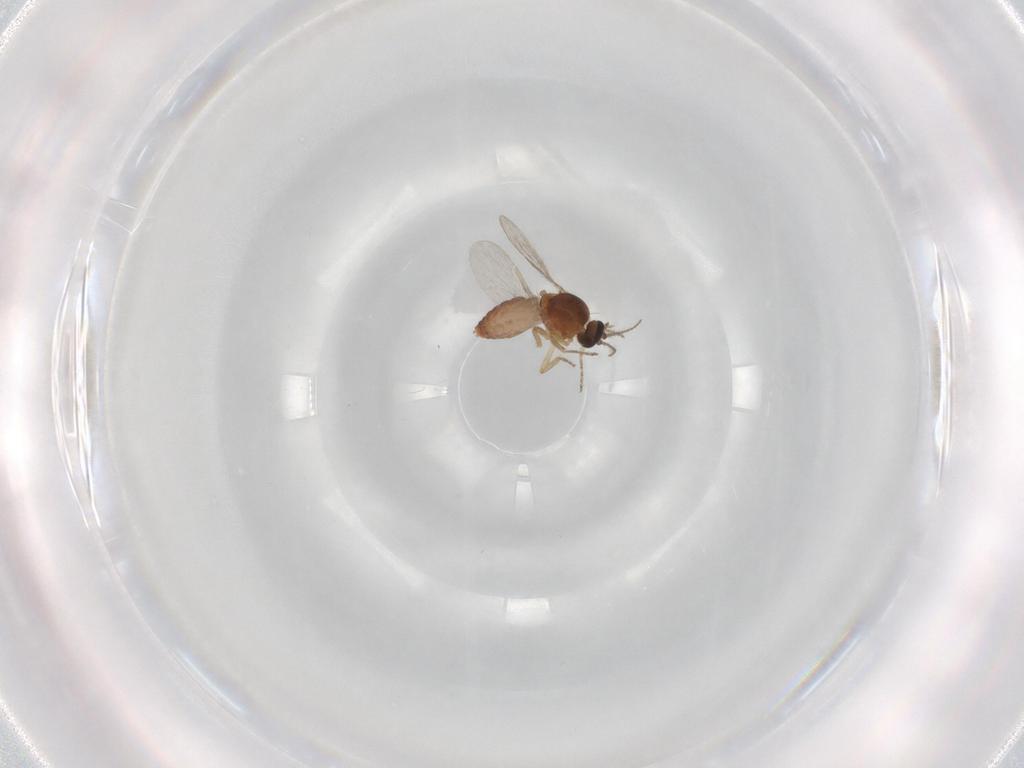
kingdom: Animalia
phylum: Arthropoda
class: Insecta
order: Diptera
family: Ceratopogonidae
